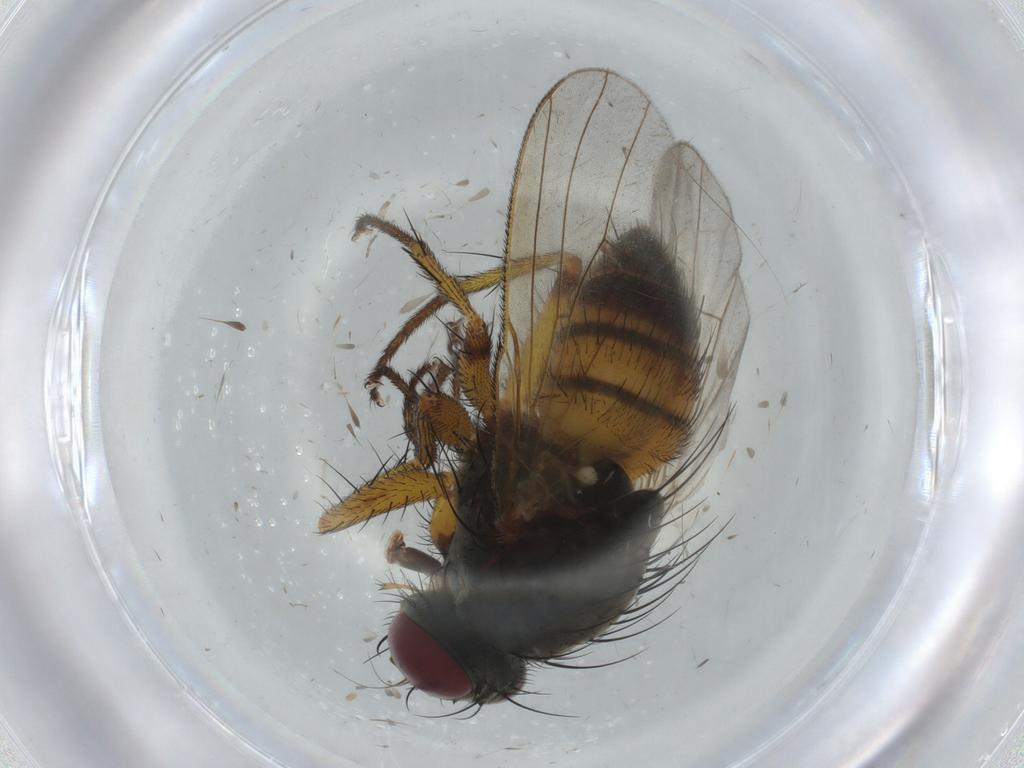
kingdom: Animalia
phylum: Arthropoda
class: Insecta
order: Diptera
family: Muscidae
